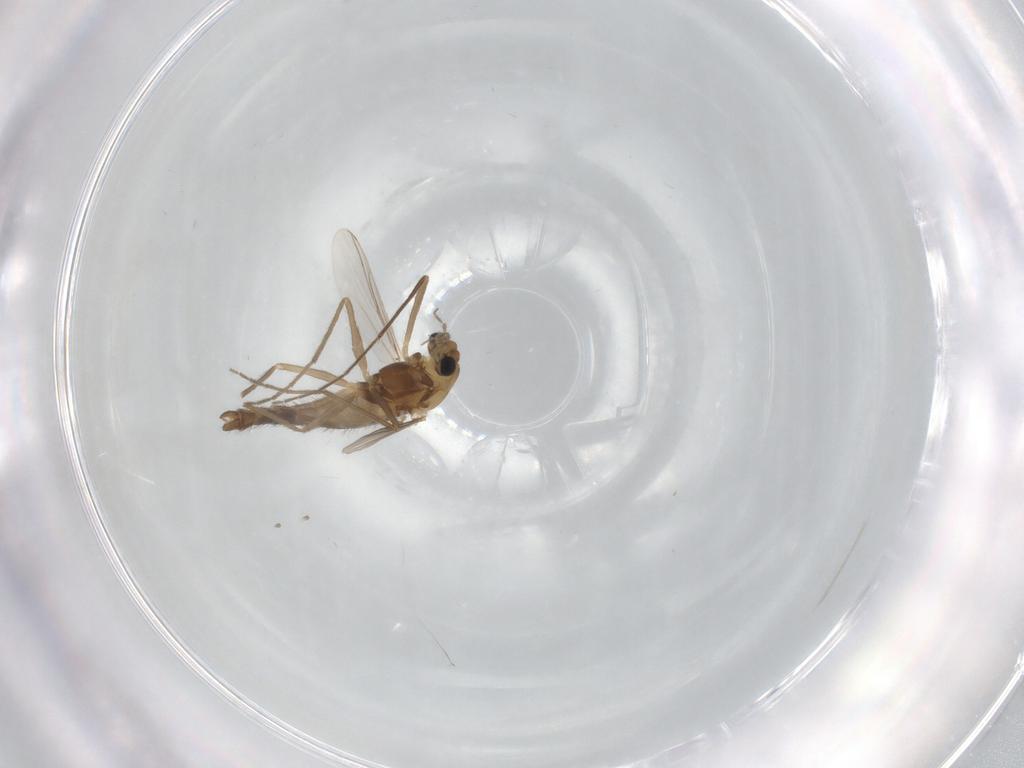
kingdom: Animalia
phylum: Arthropoda
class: Insecta
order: Diptera
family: Chironomidae
